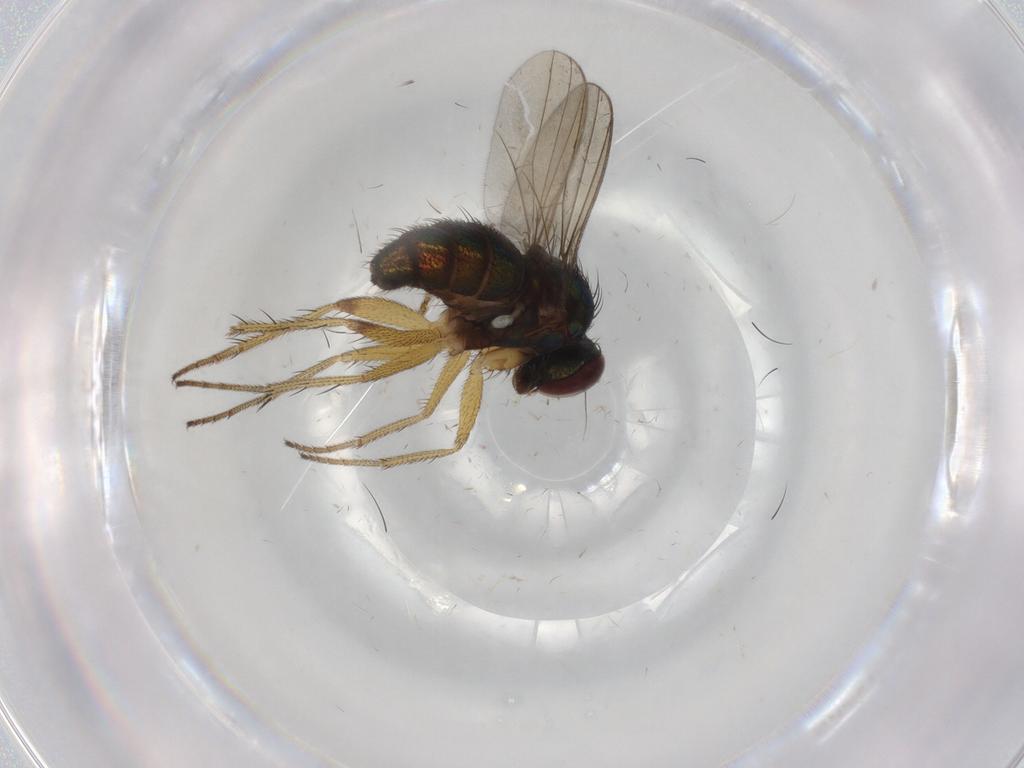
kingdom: Animalia
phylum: Arthropoda
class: Insecta
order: Diptera
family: Dolichopodidae
